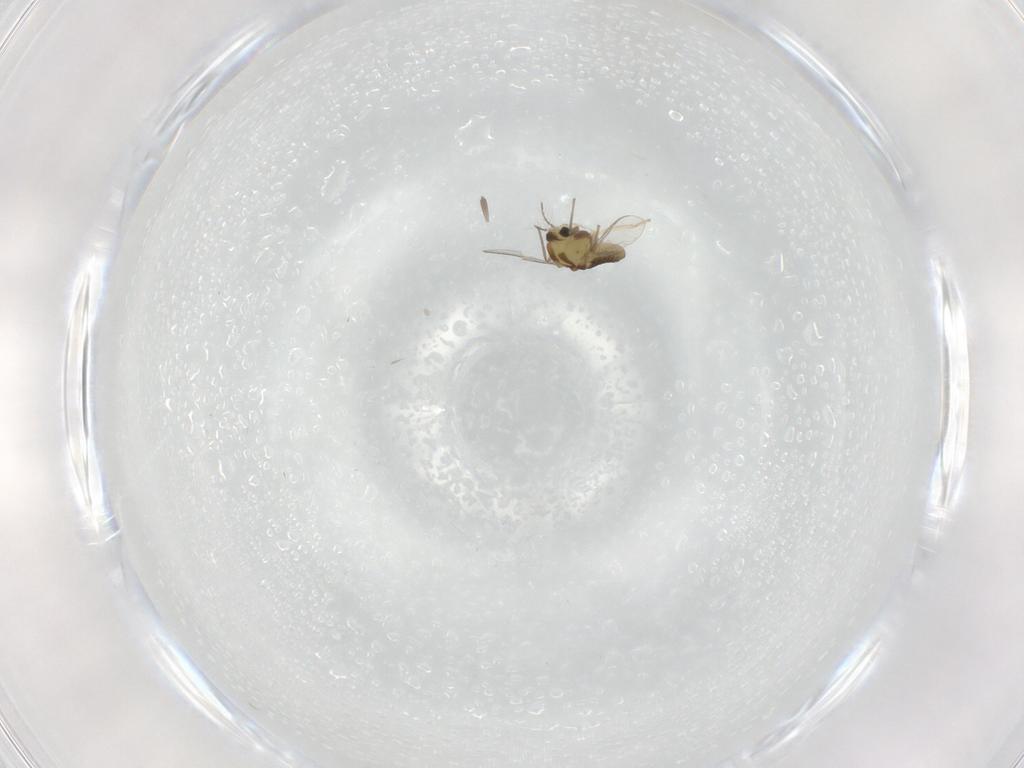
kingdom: Animalia
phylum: Arthropoda
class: Insecta
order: Diptera
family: Chironomidae
